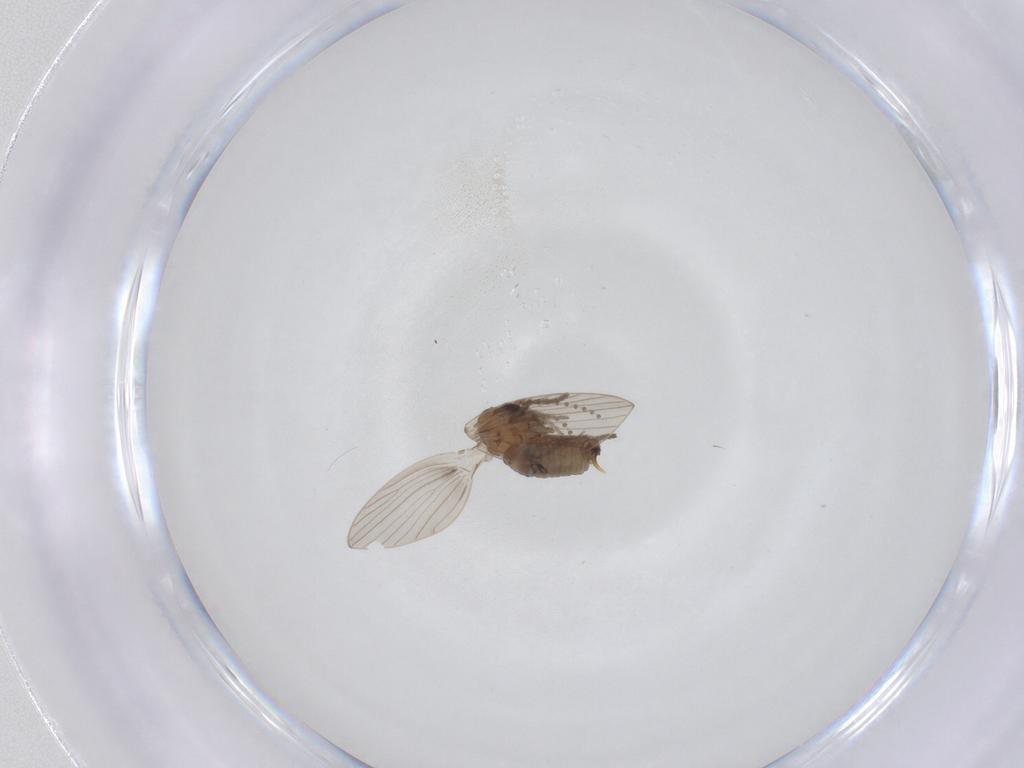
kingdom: Animalia
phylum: Arthropoda
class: Insecta
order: Diptera
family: Psychodidae
